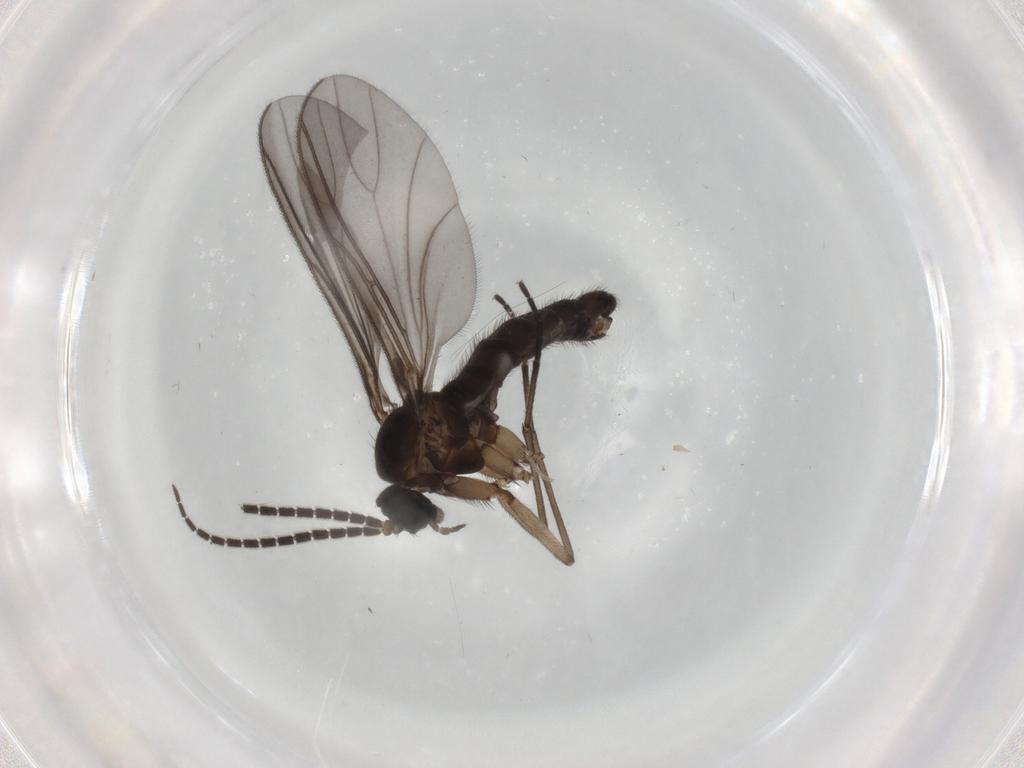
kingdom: Animalia
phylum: Arthropoda
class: Insecta
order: Diptera
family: Sciaridae
